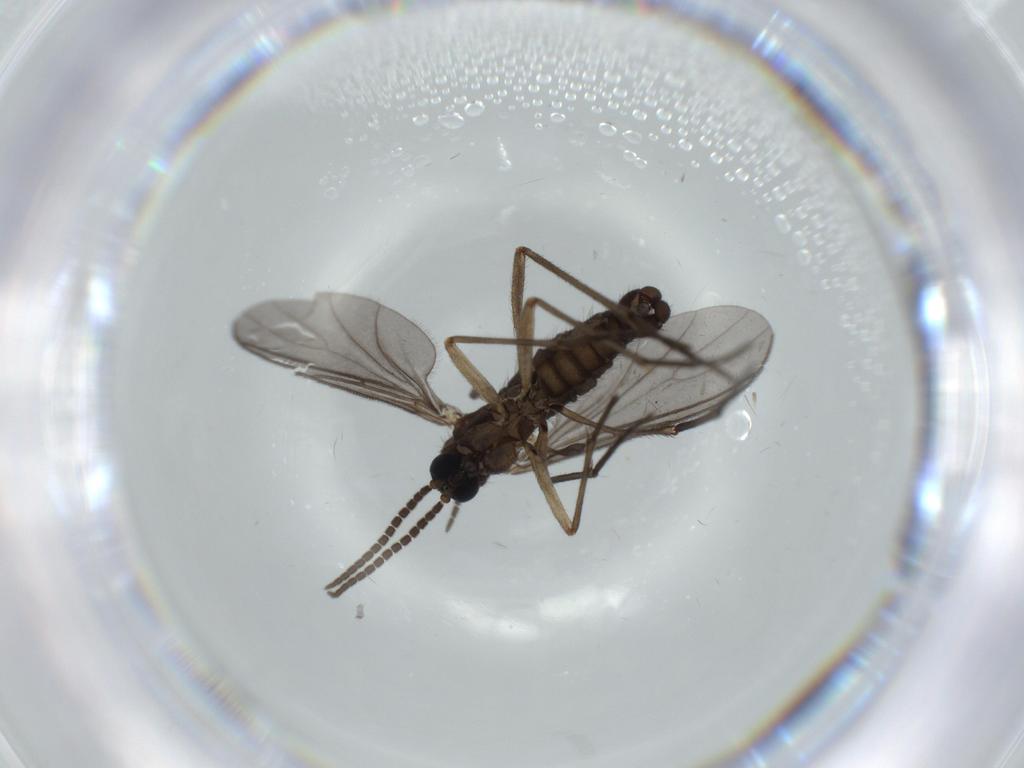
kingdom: Animalia
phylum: Arthropoda
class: Insecta
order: Diptera
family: Sciaridae
